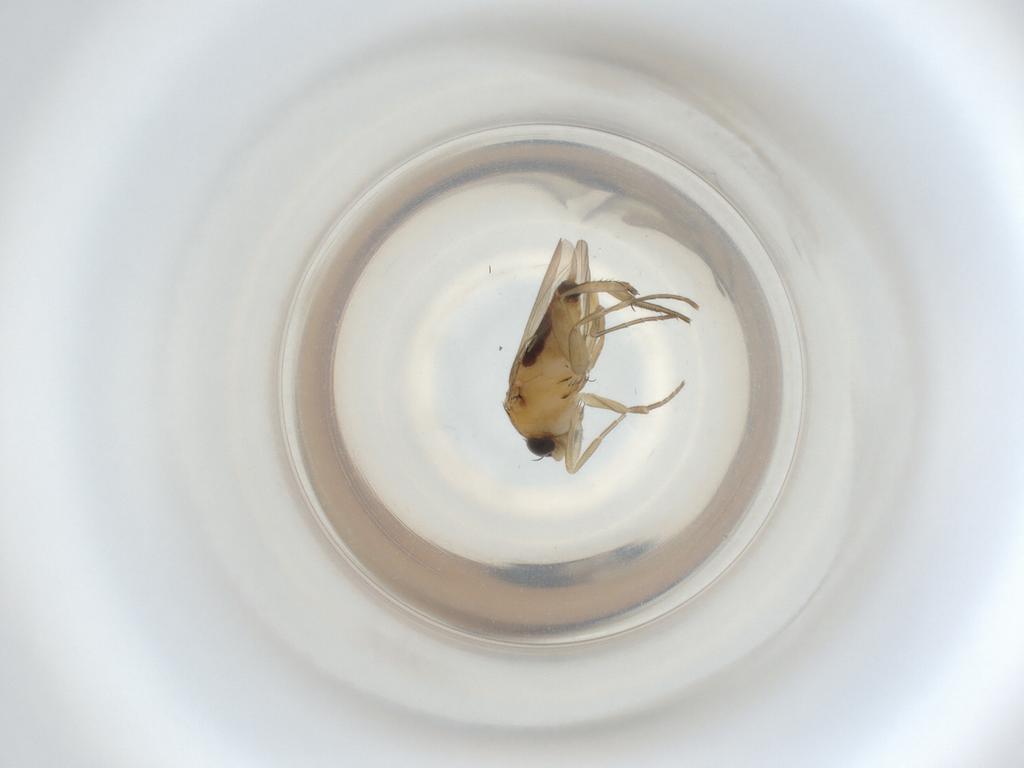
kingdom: Animalia
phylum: Arthropoda
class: Insecta
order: Diptera
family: Phoridae
